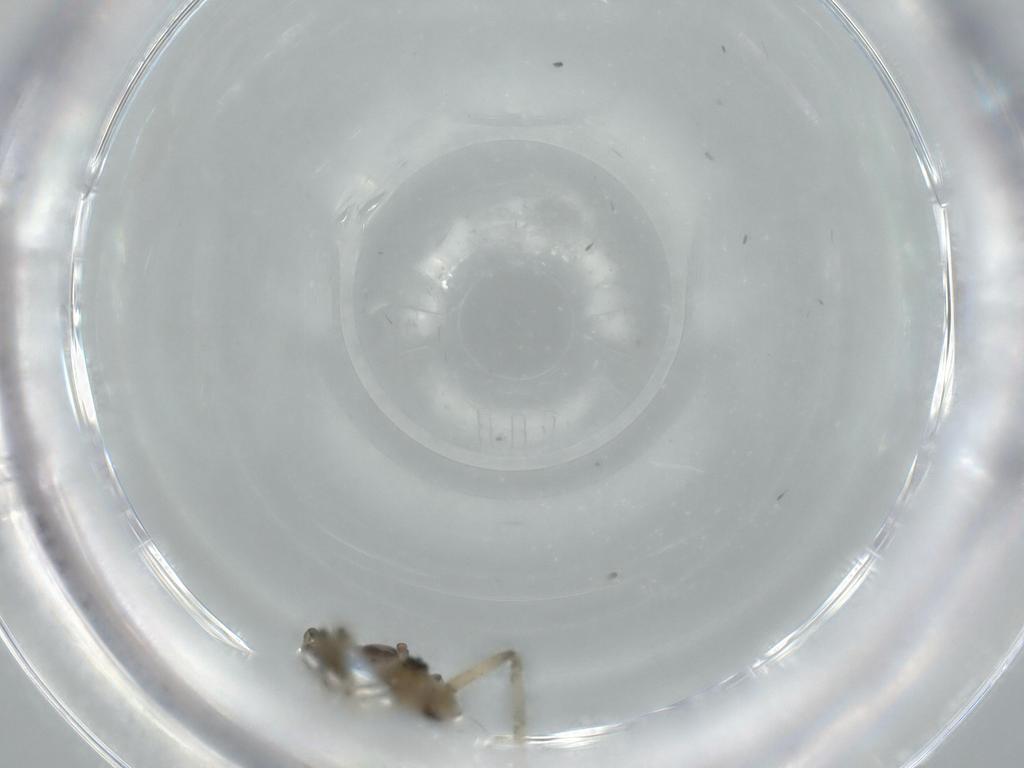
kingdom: Animalia
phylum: Arthropoda
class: Arachnida
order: Araneae
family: Linyphiidae
